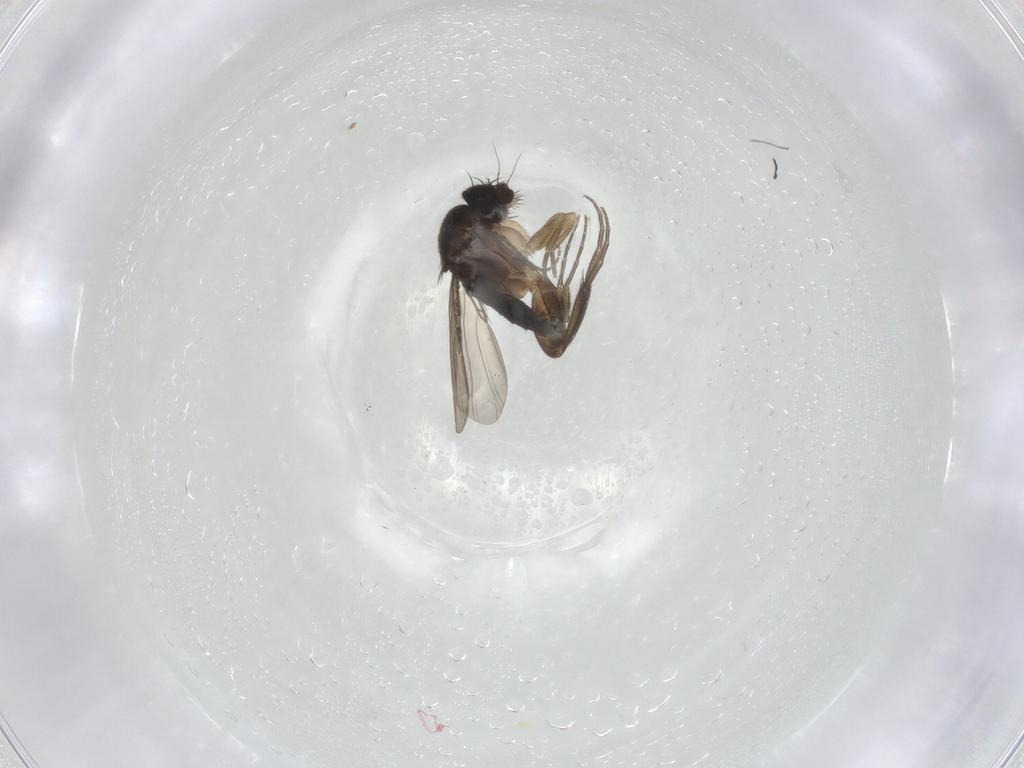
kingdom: Animalia
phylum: Arthropoda
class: Insecta
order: Diptera
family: Phoridae
